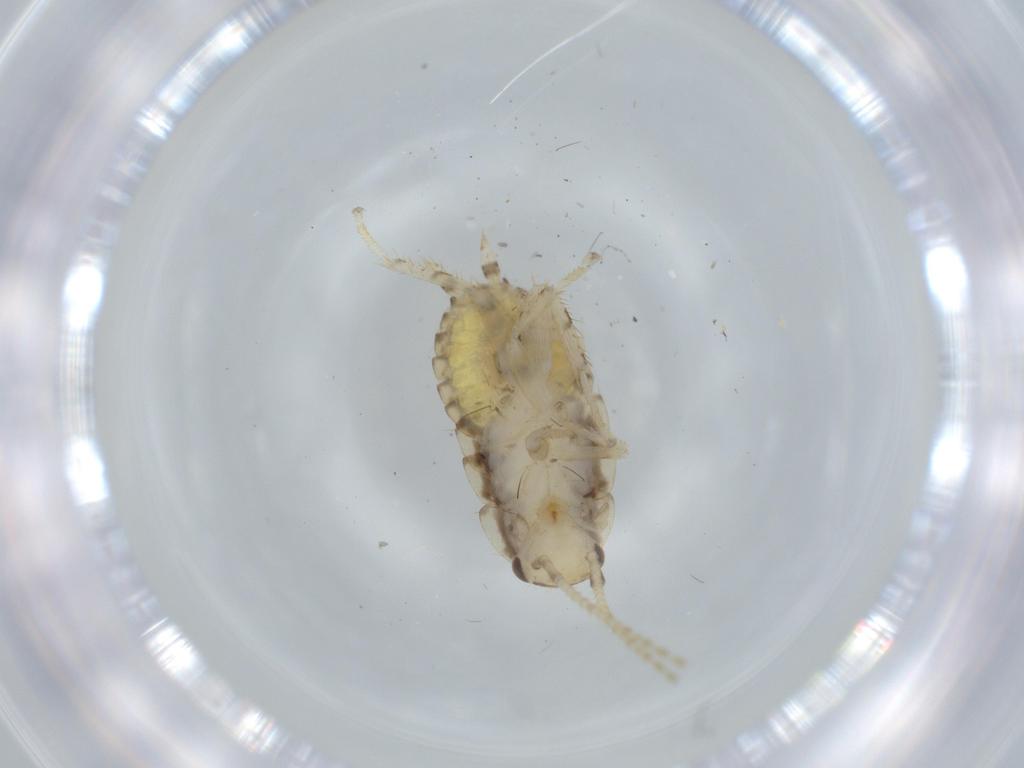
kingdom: Animalia
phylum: Arthropoda
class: Insecta
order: Blattodea
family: Ectobiidae
